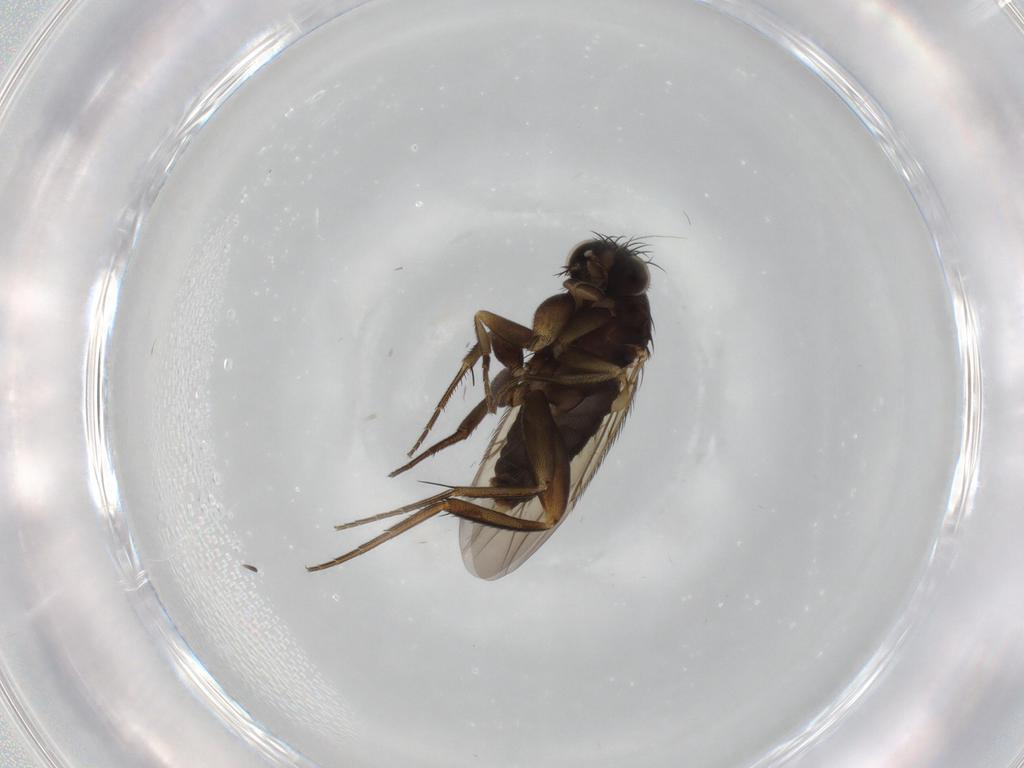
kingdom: Animalia
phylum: Arthropoda
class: Insecta
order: Diptera
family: Phoridae
